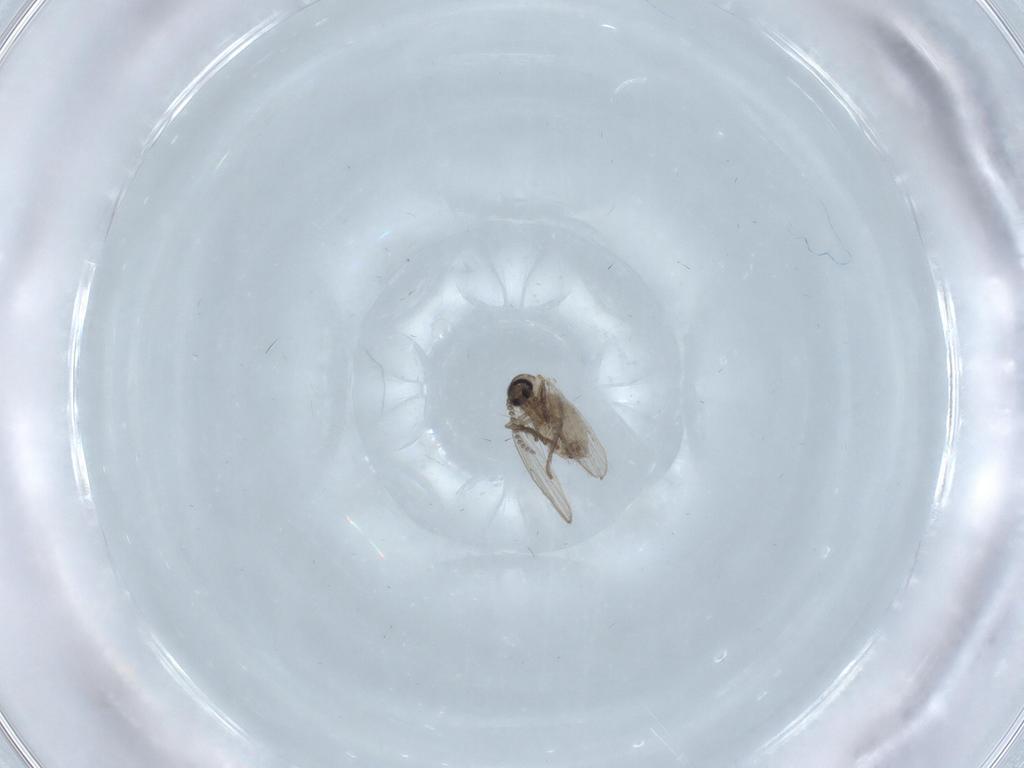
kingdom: Animalia
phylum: Arthropoda
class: Insecta
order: Diptera
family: Psychodidae
